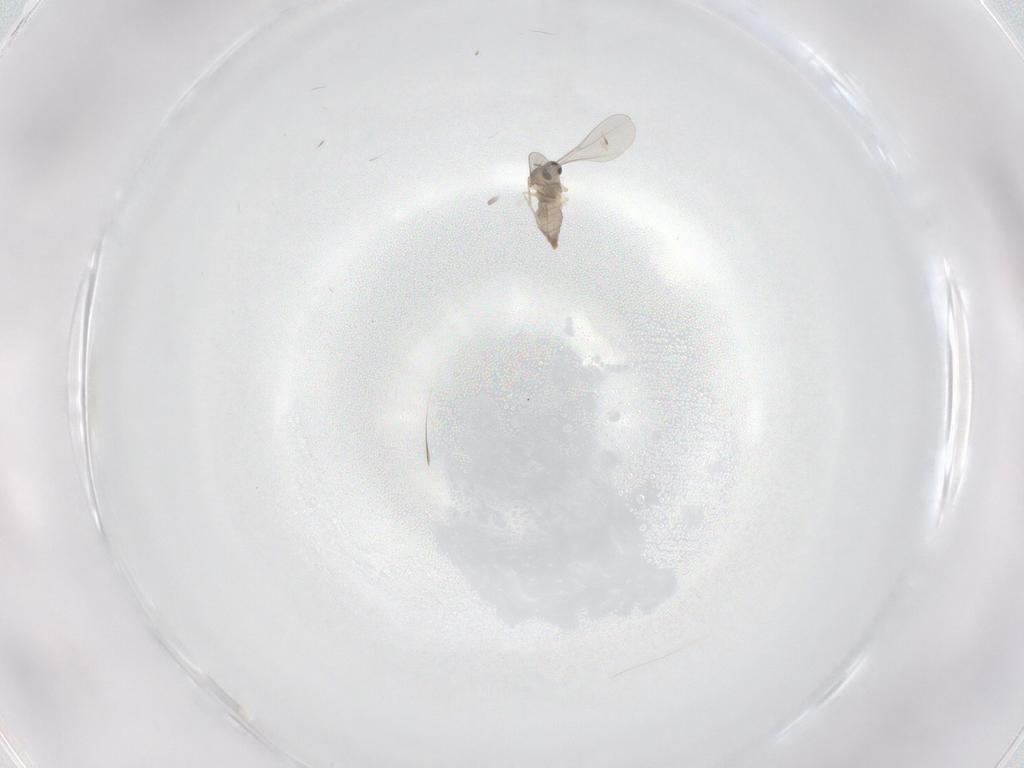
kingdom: Animalia
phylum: Arthropoda
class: Insecta
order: Diptera
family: Cecidomyiidae
